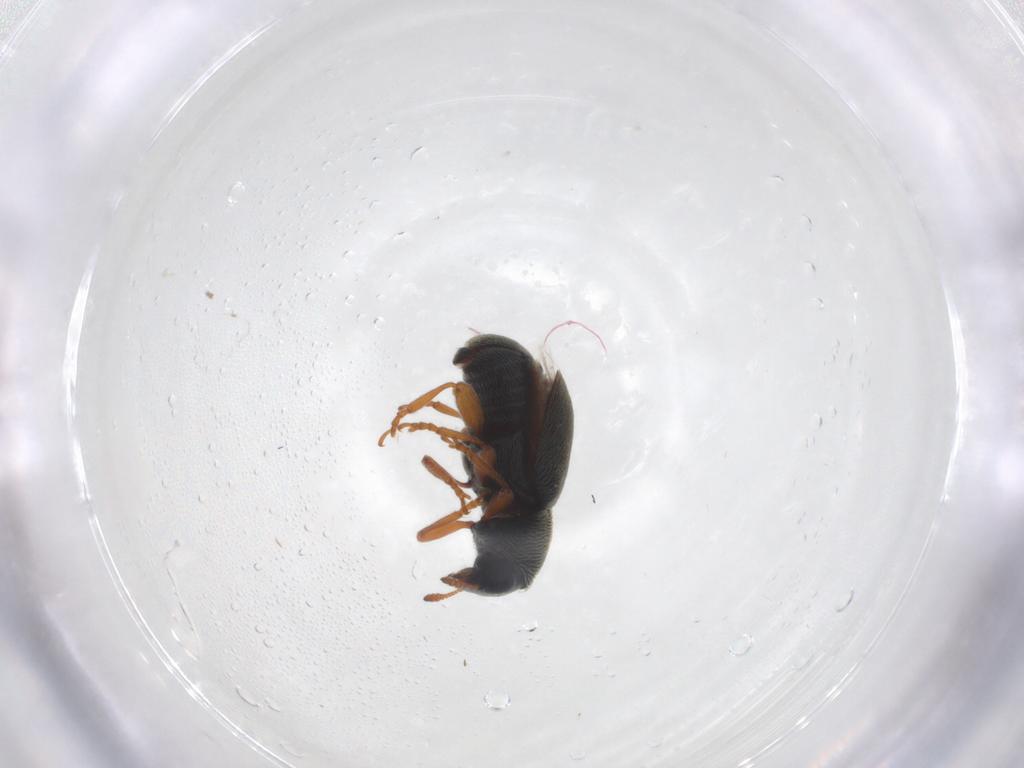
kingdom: Animalia
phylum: Arthropoda
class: Insecta
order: Coleoptera
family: Anthribidae
